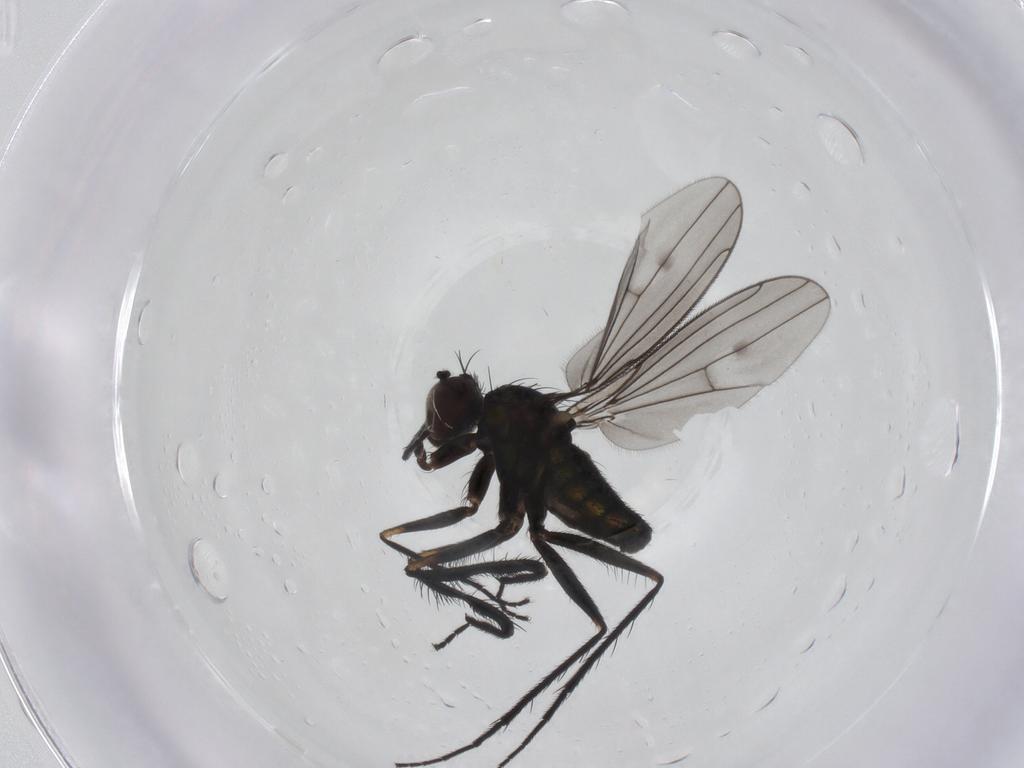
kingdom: Animalia
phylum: Arthropoda
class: Insecta
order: Diptera
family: Dolichopodidae
